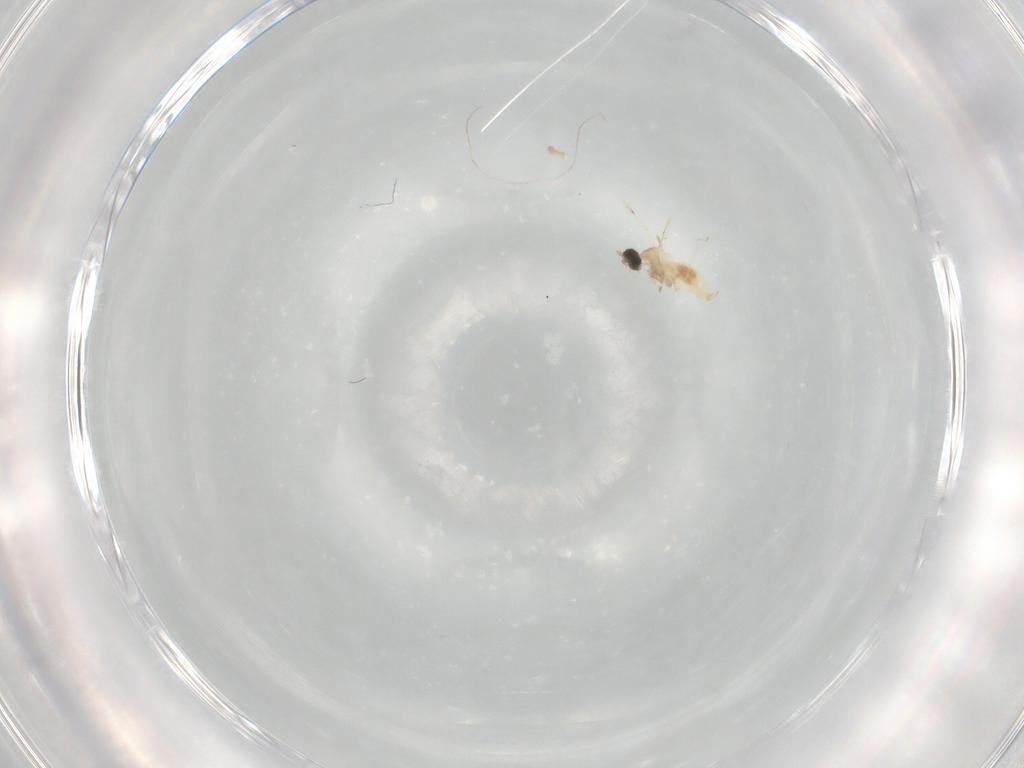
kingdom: Animalia
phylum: Arthropoda
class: Insecta
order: Diptera
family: Cecidomyiidae
